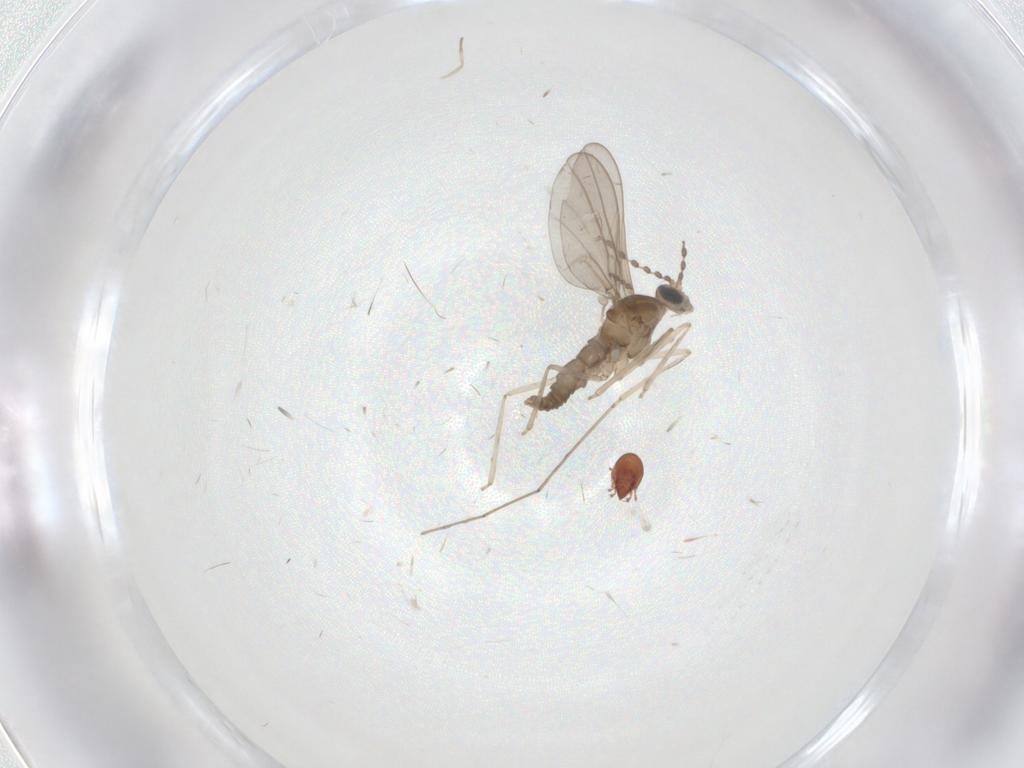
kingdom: Animalia
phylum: Arthropoda
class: Insecta
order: Diptera
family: Cecidomyiidae
